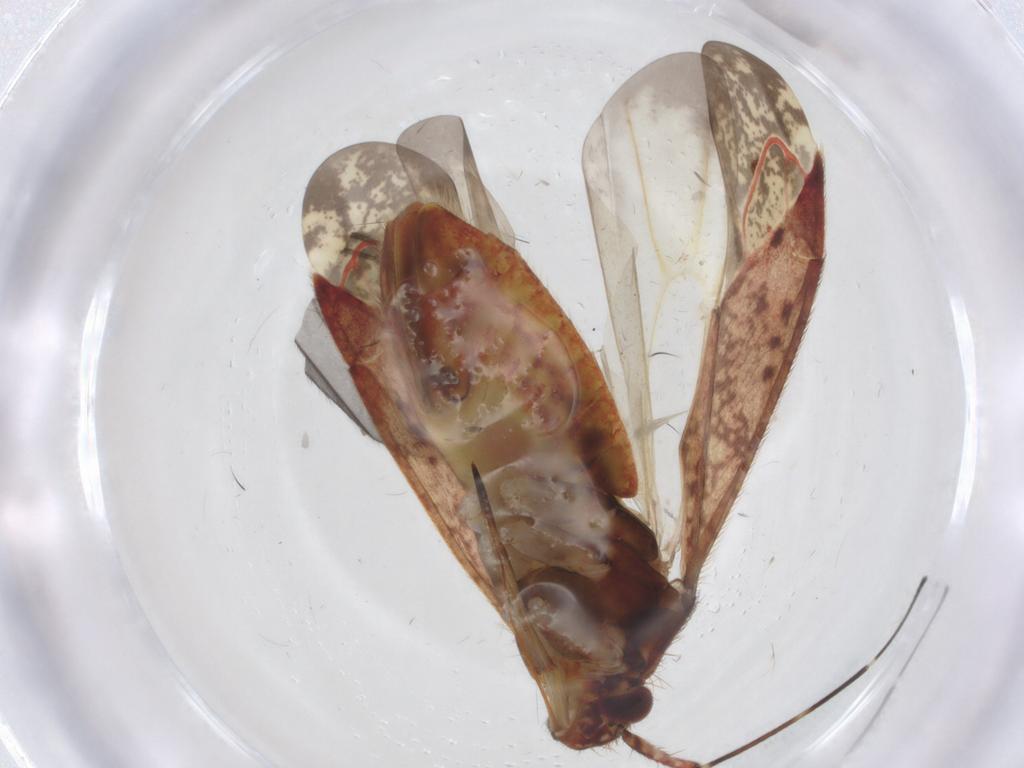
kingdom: Animalia
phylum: Arthropoda
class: Insecta
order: Hemiptera
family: Miridae
